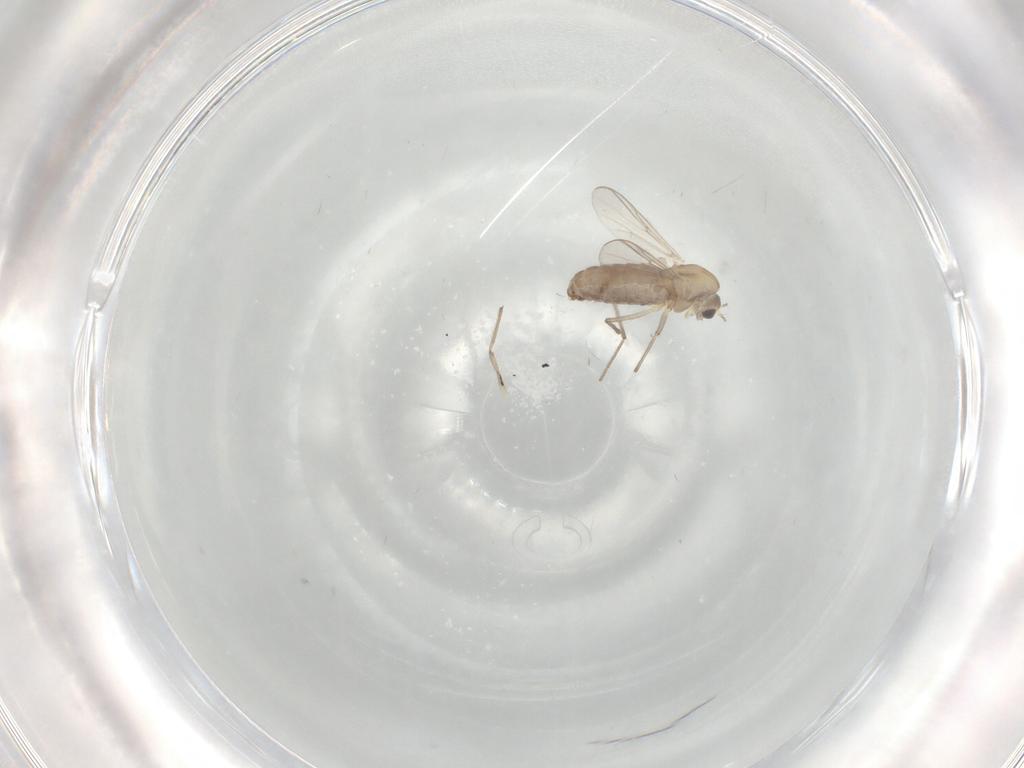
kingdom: Animalia
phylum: Arthropoda
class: Insecta
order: Diptera
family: Chironomidae
